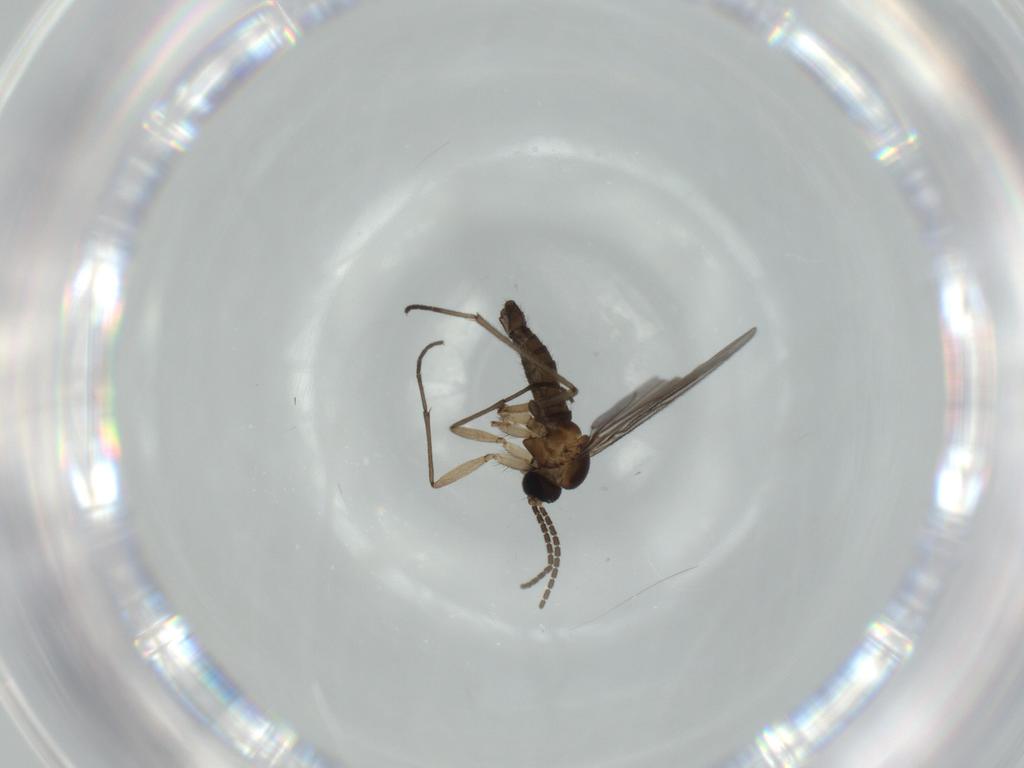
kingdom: Animalia
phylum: Arthropoda
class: Insecta
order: Diptera
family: Sciaridae
